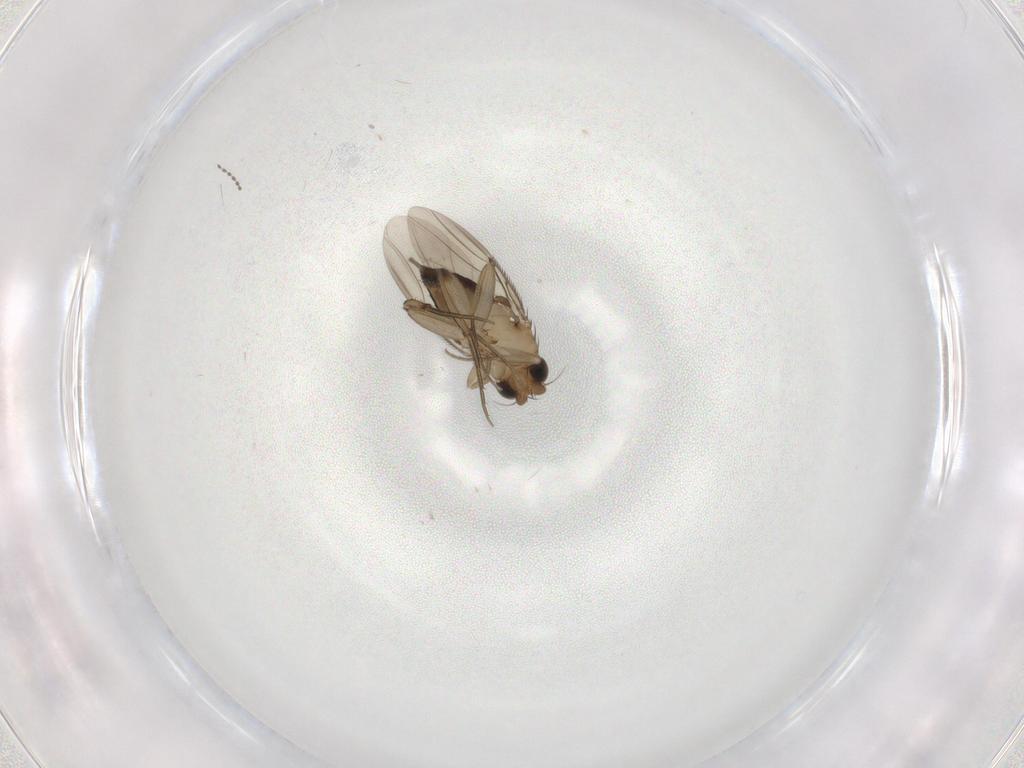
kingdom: Animalia
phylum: Arthropoda
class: Insecta
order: Diptera
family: Phoridae
